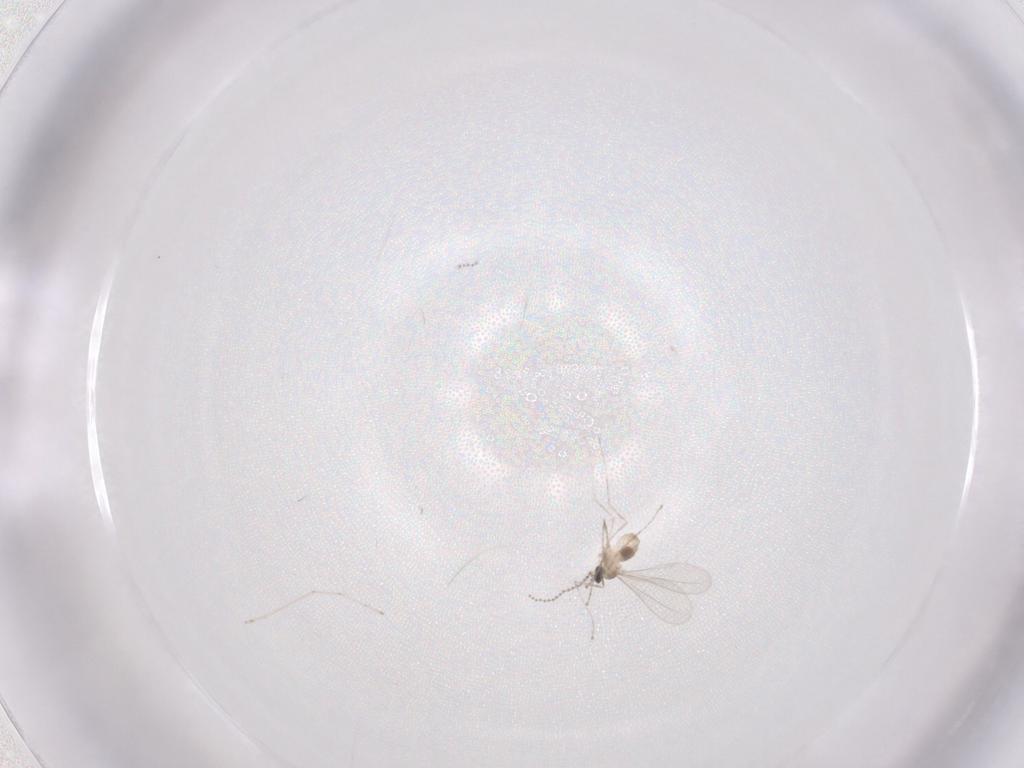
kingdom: Animalia
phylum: Arthropoda
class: Insecta
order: Diptera
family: Cecidomyiidae
